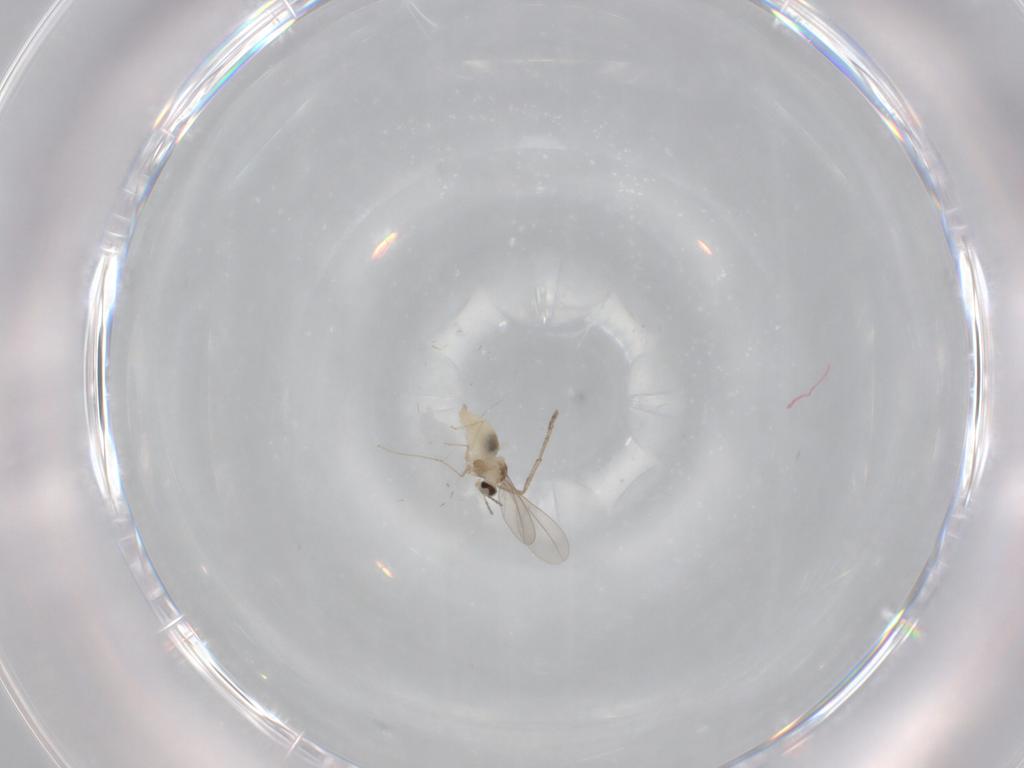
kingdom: Animalia
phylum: Arthropoda
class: Insecta
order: Diptera
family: Cecidomyiidae
